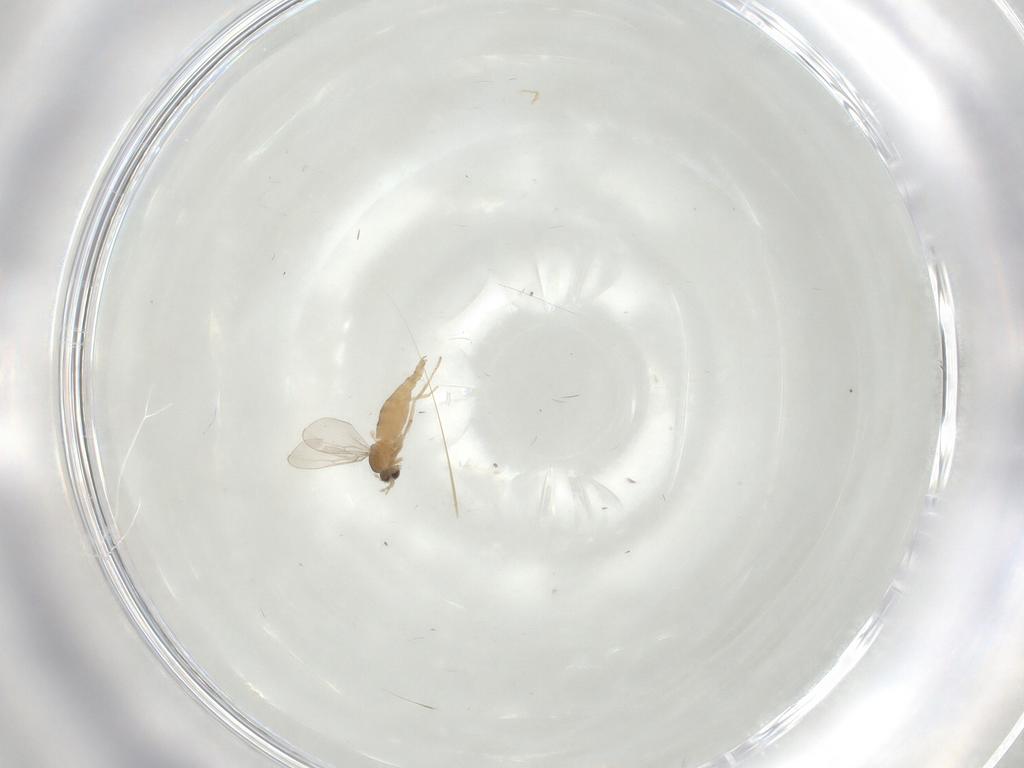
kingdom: Animalia
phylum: Arthropoda
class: Insecta
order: Diptera
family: Cecidomyiidae
